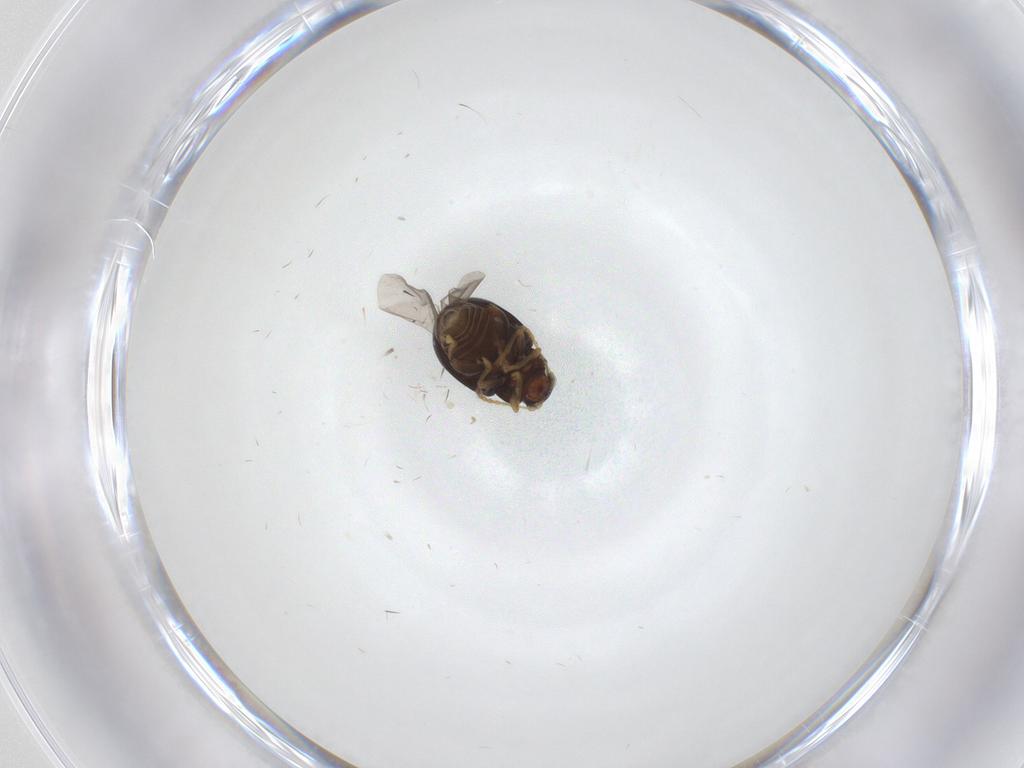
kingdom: Animalia
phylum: Arthropoda
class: Insecta
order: Coleoptera
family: Chrysomelidae
